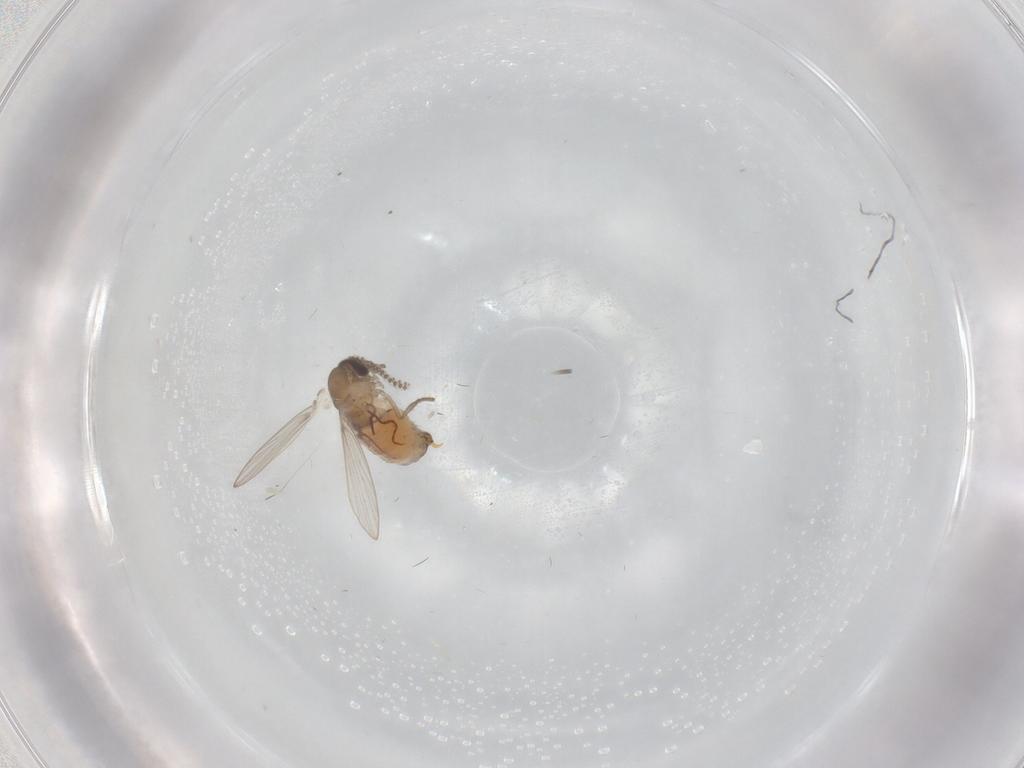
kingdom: Animalia
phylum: Arthropoda
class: Insecta
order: Diptera
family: Psychodidae
